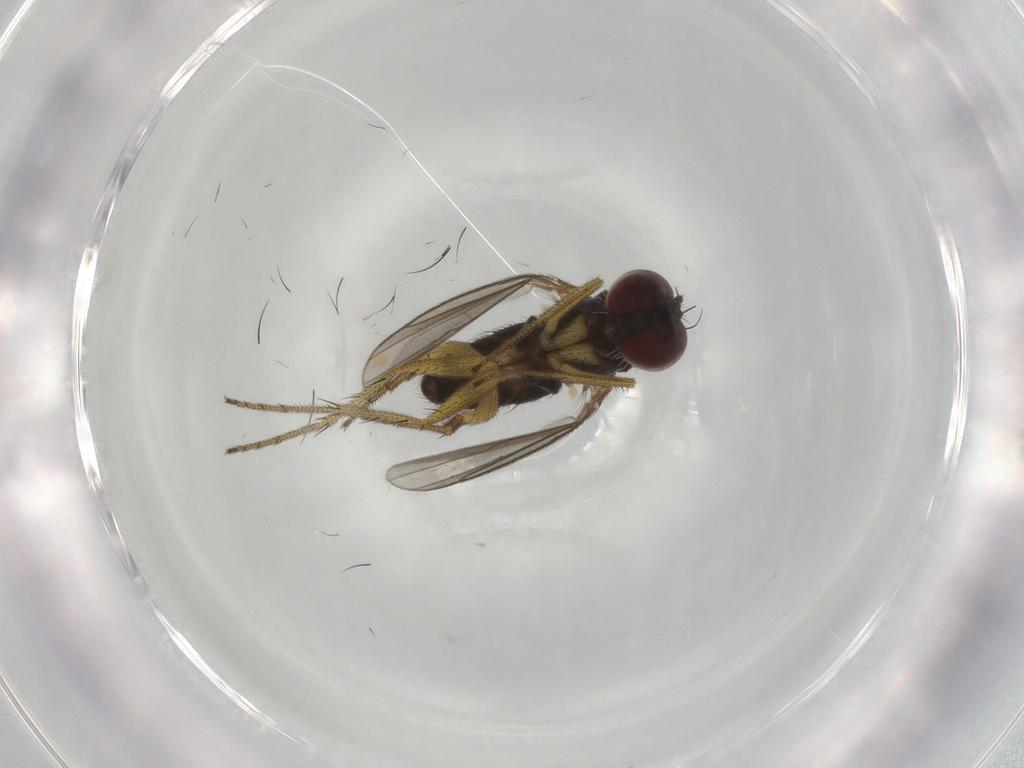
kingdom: Animalia
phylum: Arthropoda
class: Insecta
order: Diptera
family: Dolichopodidae
